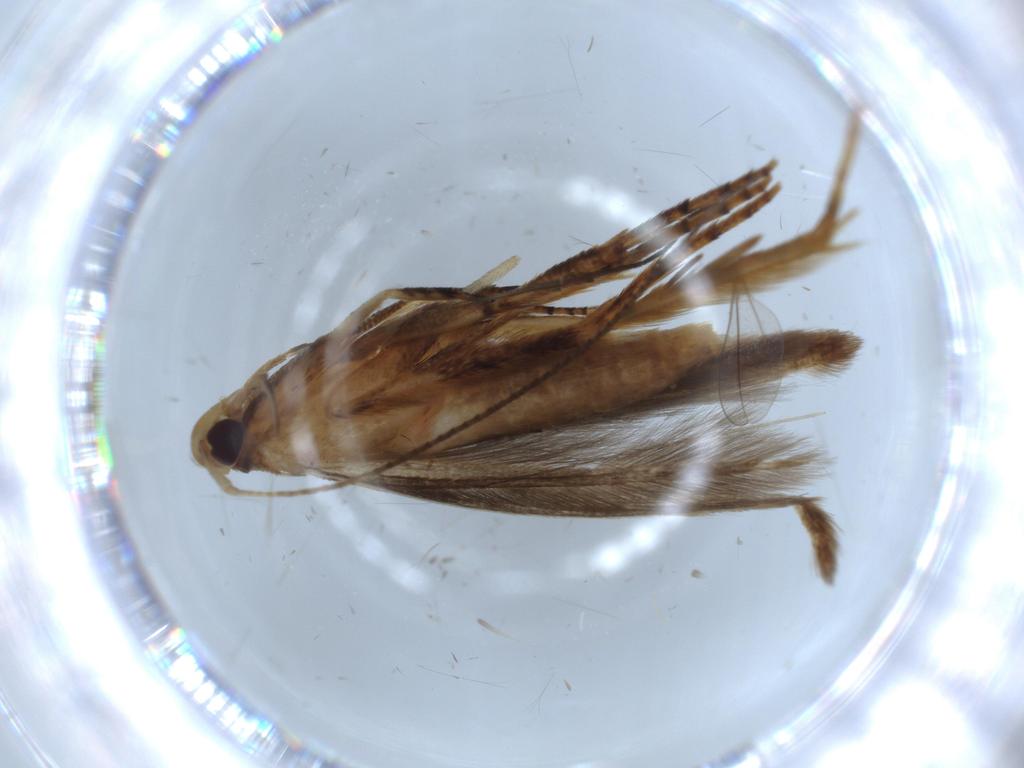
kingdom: Animalia
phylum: Arthropoda
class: Insecta
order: Lepidoptera
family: Heliodinidae
